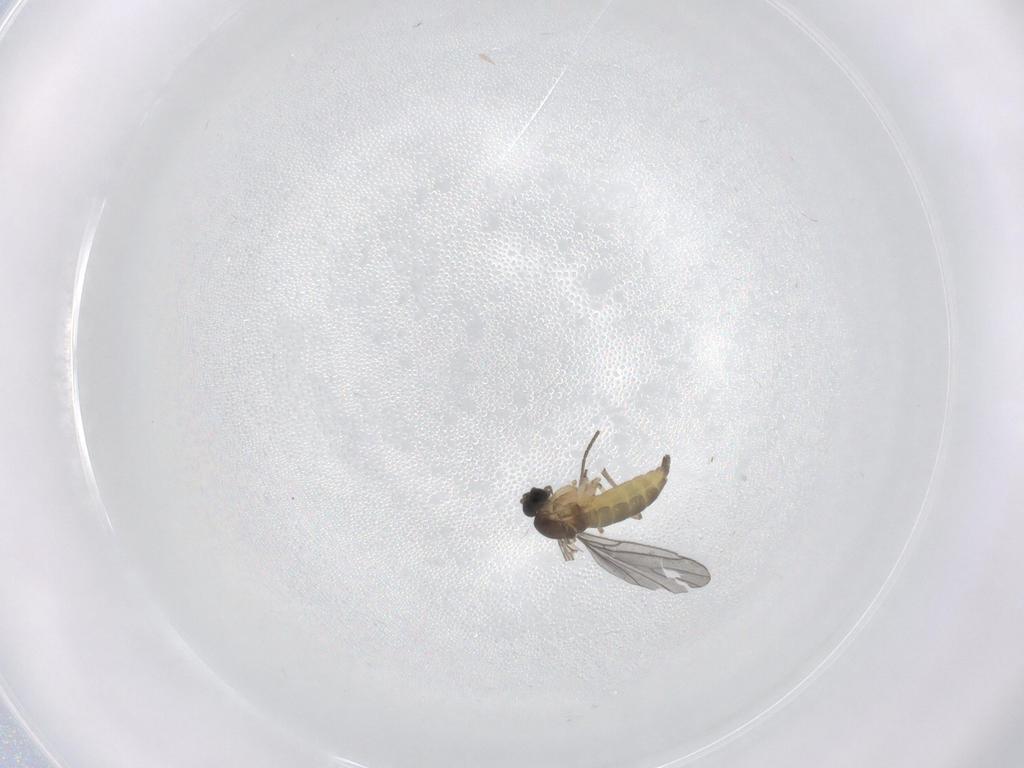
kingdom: Animalia
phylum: Arthropoda
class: Insecta
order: Diptera
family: Sciaridae
